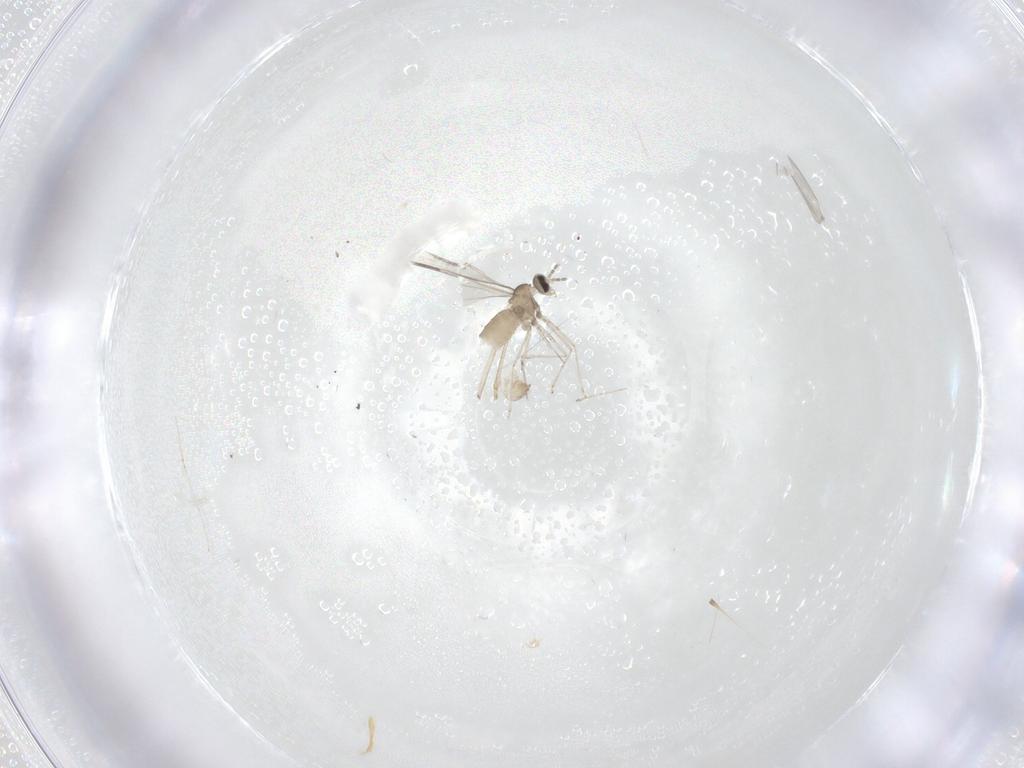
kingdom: Animalia
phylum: Arthropoda
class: Insecta
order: Diptera
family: Cecidomyiidae
